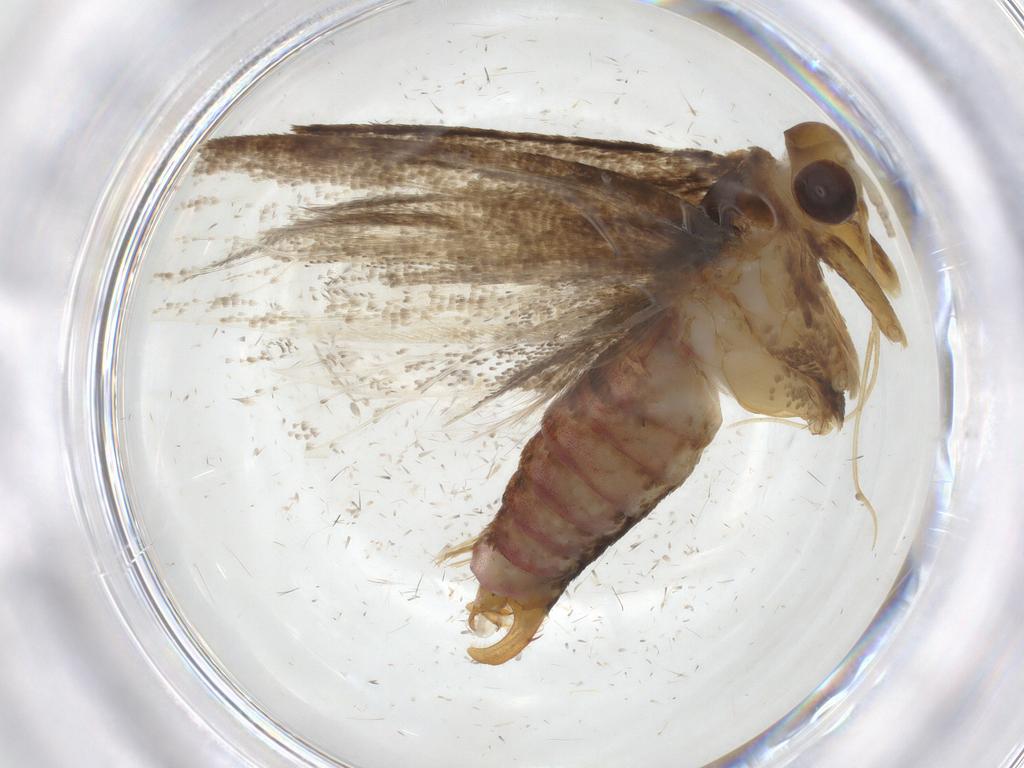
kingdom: Animalia
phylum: Arthropoda
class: Insecta
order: Lepidoptera
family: Lecithoceridae
